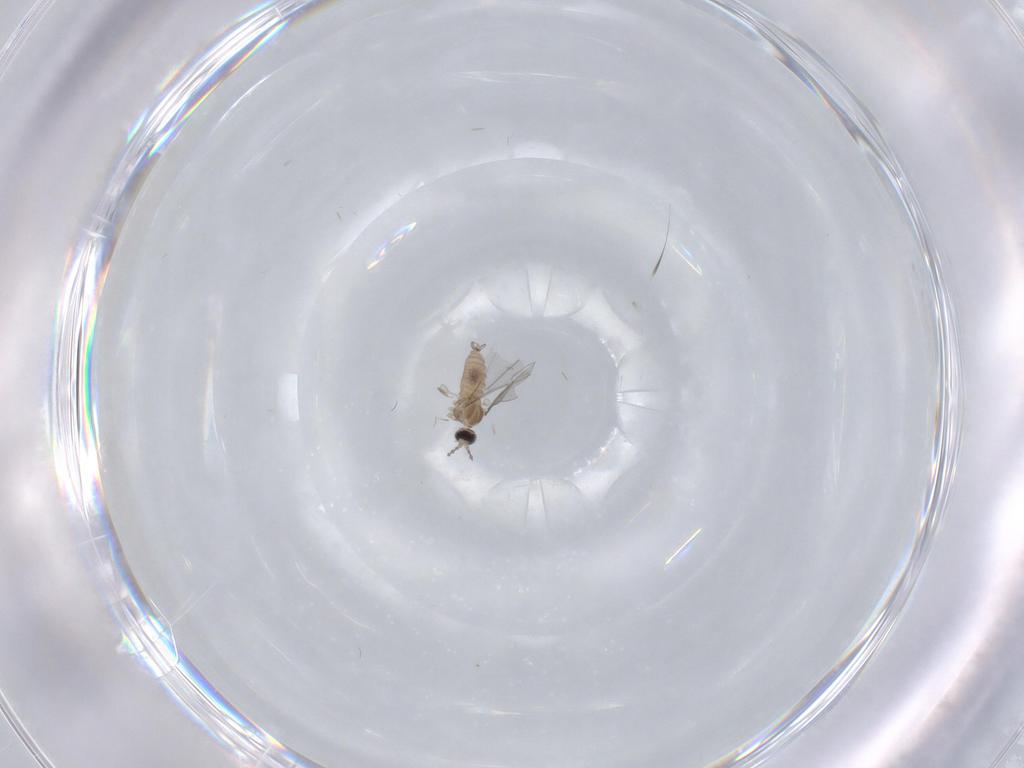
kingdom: Animalia
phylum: Arthropoda
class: Insecta
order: Diptera
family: Cecidomyiidae
